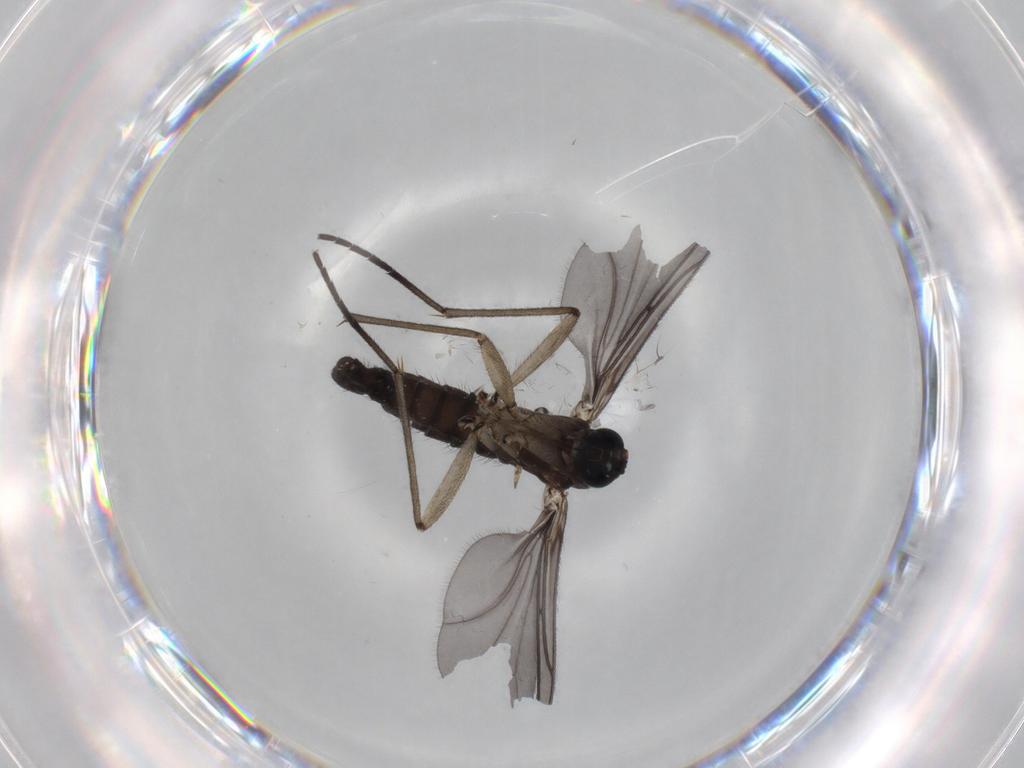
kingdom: Animalia
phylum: Arthropoda
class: Insecta
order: Diptera
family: Sciaridae
